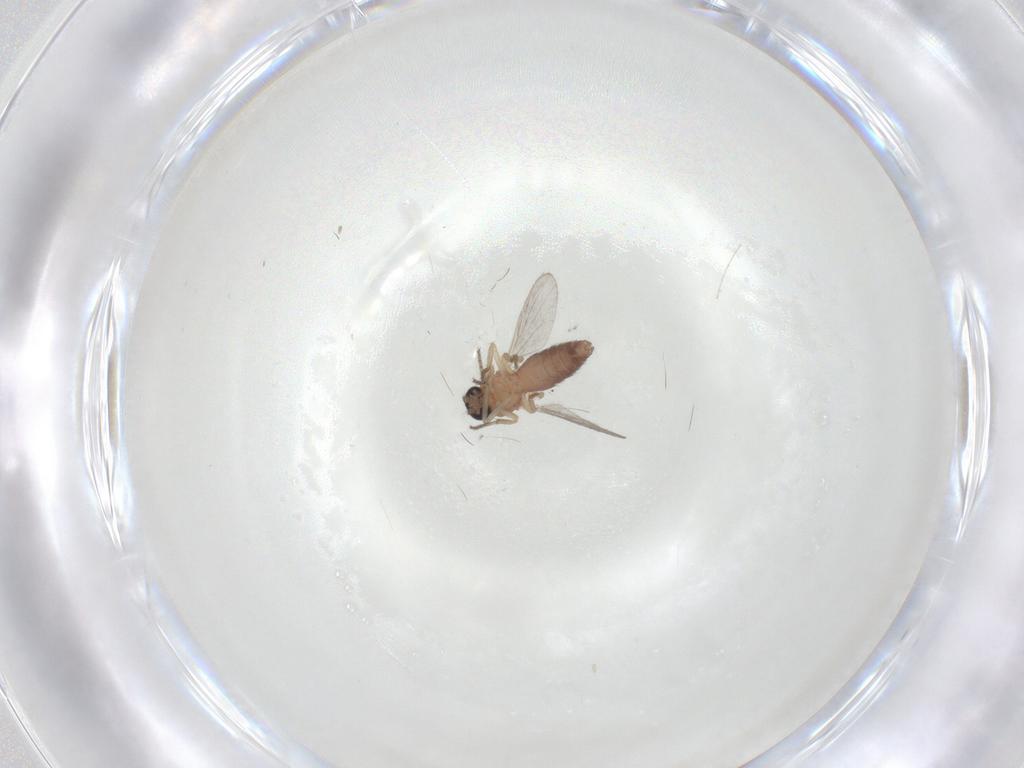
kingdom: Animalia
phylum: Arthropoda
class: Insecta
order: Diptera
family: Ceratopogonidae
